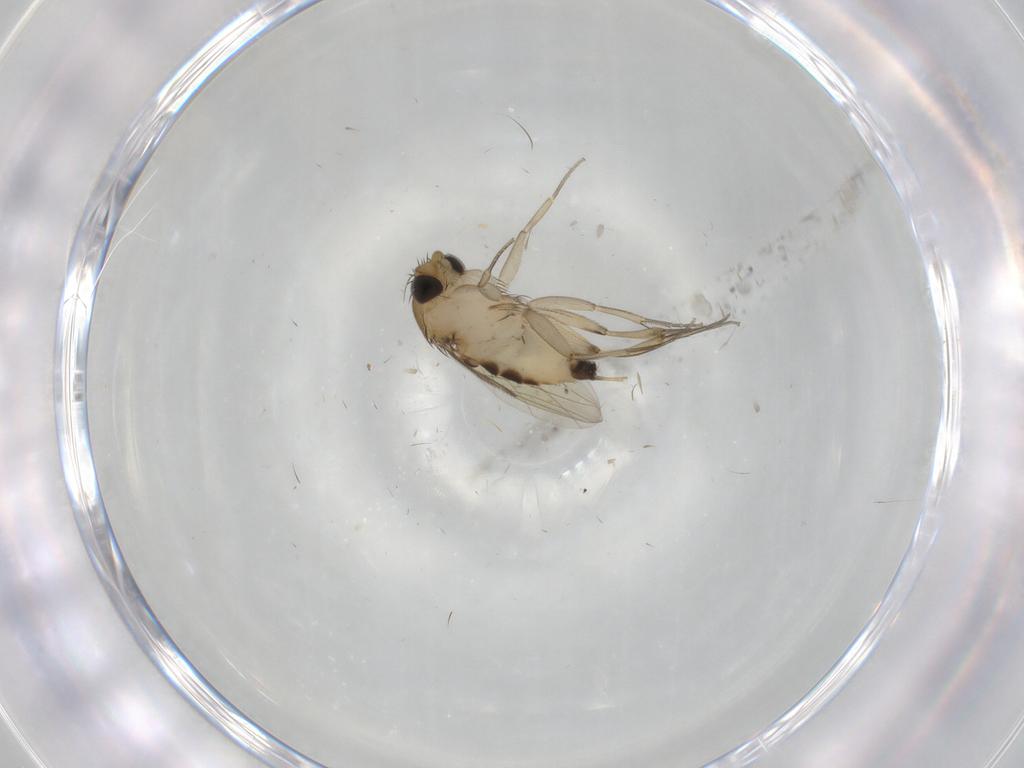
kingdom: Animalia
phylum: Arthropoda
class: Insecta
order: Diptera
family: Phoridae
